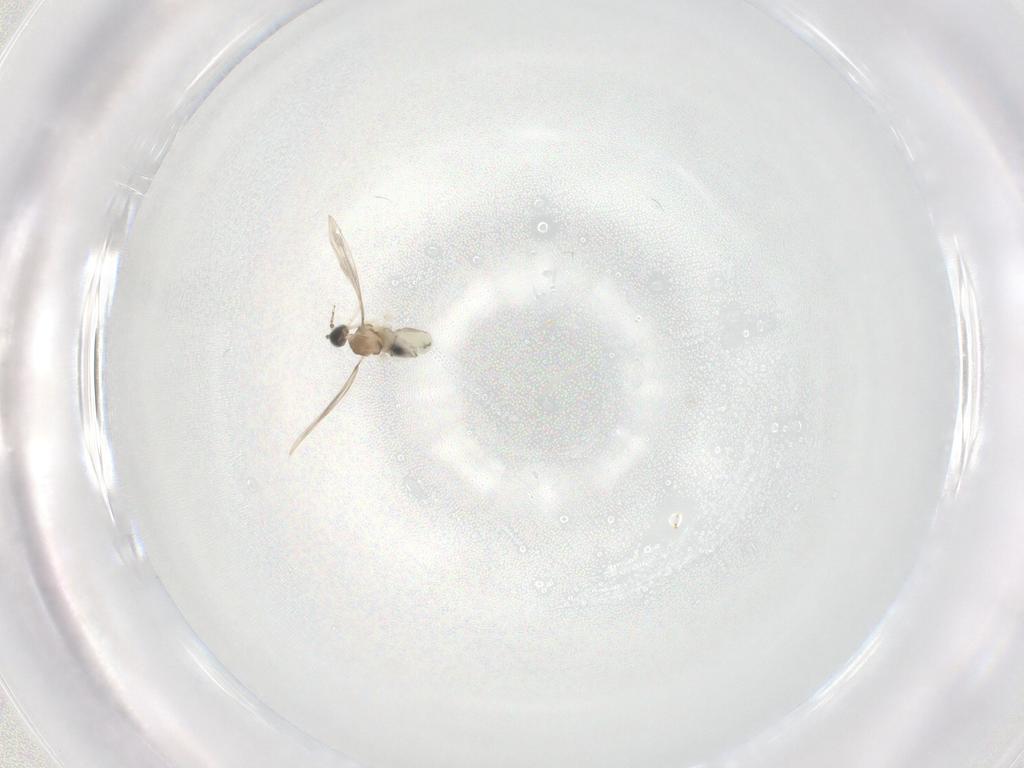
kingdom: Animalia
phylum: Arthropoda
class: Insecta
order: Diptera
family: Cecidomyiidae
